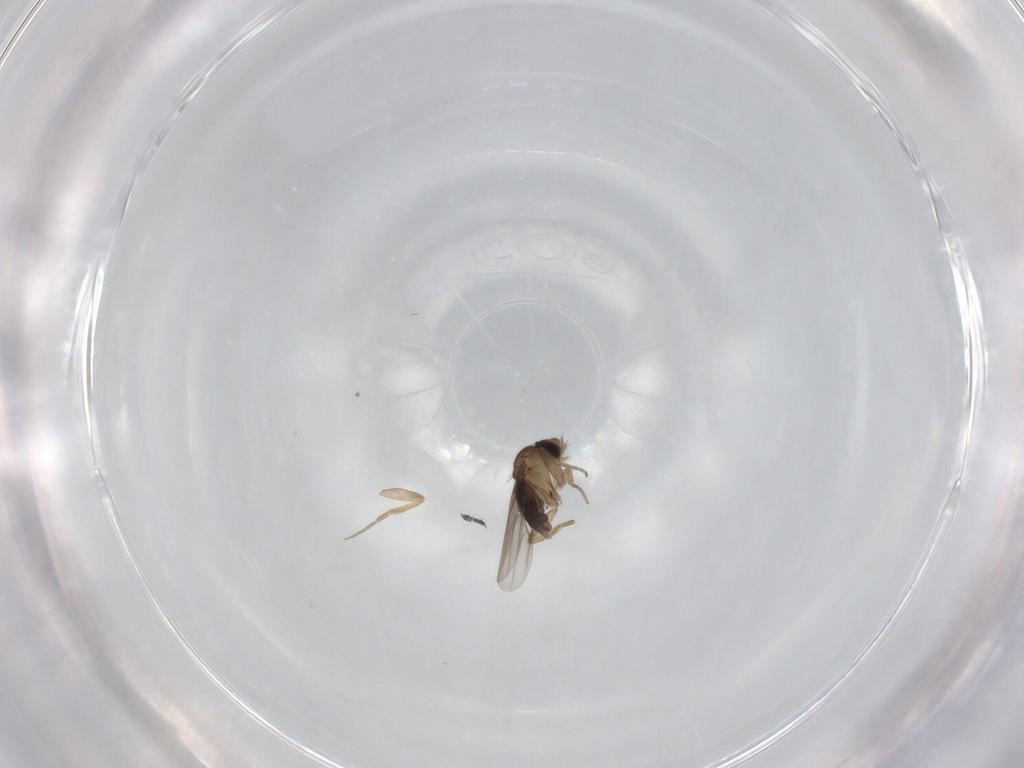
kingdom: Animalia
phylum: Arthropoda
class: Insecta
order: Diptera
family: Phoridae
